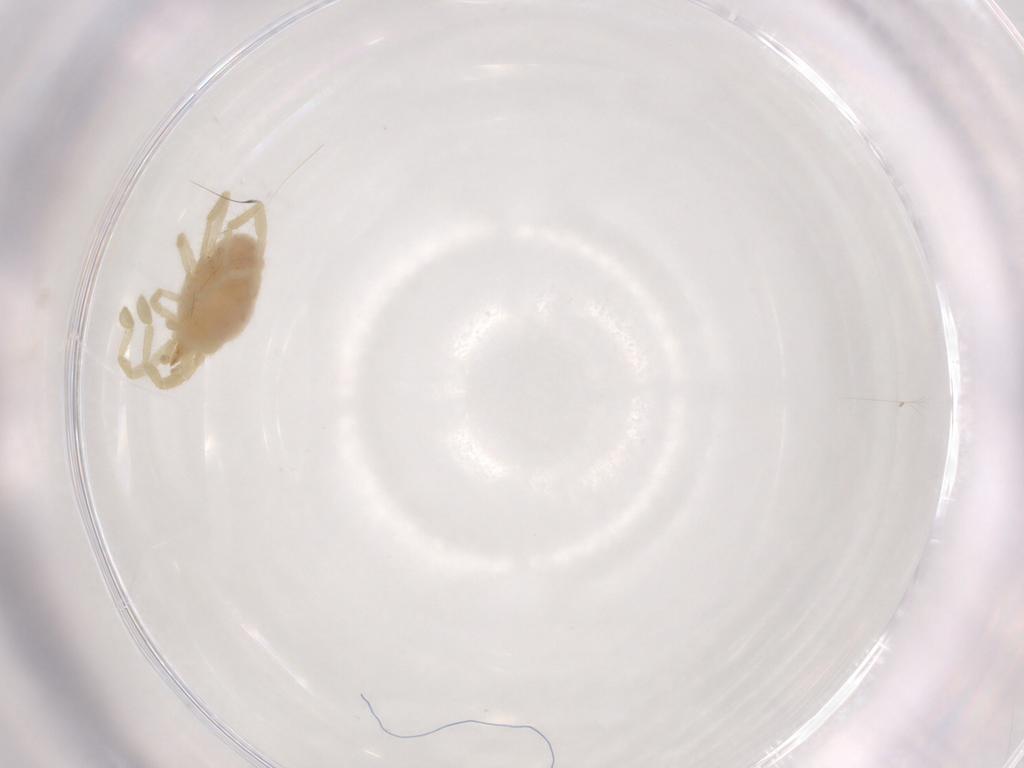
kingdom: Animalia
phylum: Arthropoda
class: Arachnida
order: Trombidiformes
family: Erythraeidae
